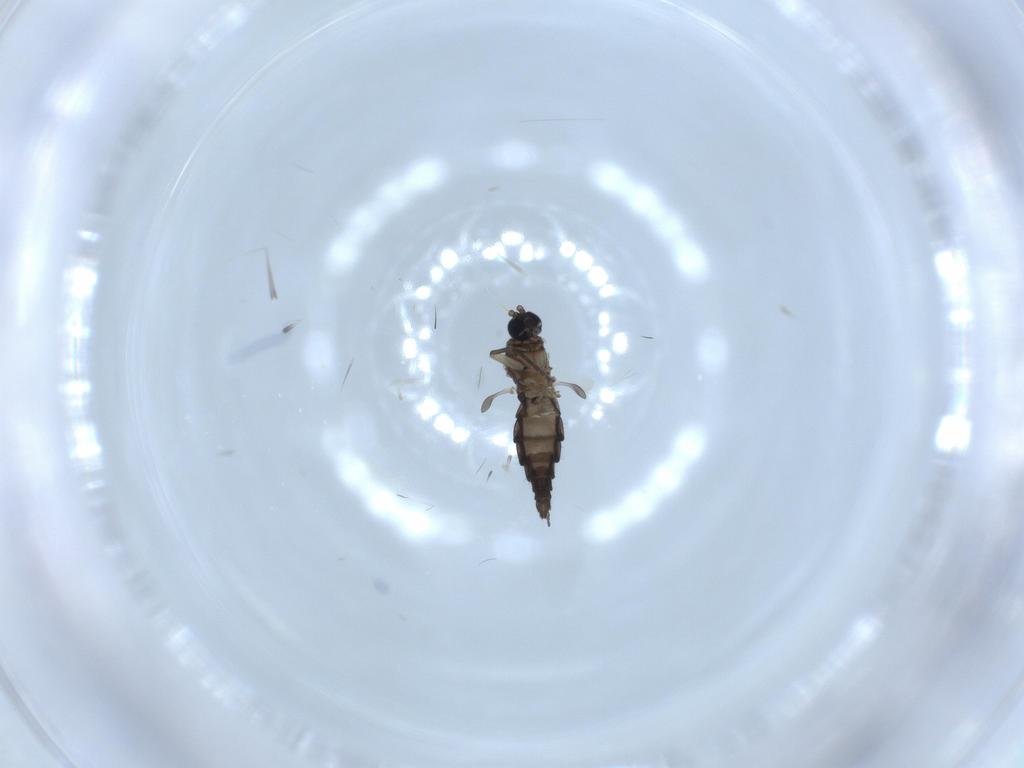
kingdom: Animalia
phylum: Arthropoda
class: Insecta
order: Diptera
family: Sciaridae
